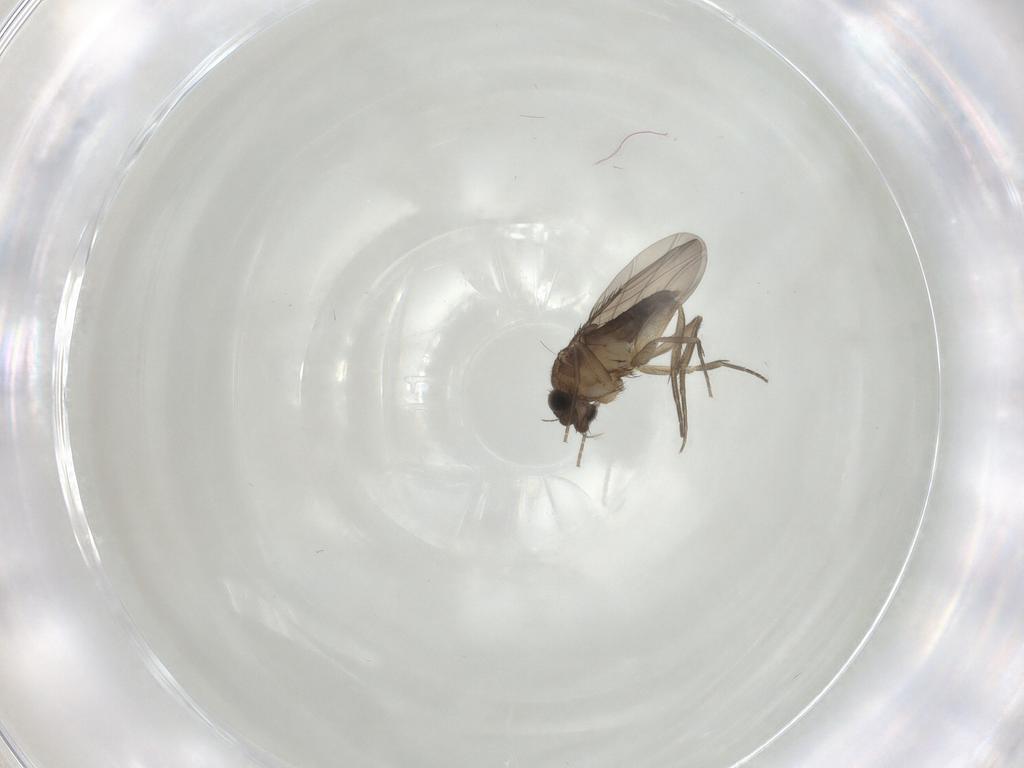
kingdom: Animalia
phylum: Arthropoda
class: Insecta
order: Diptera
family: Phoridae
